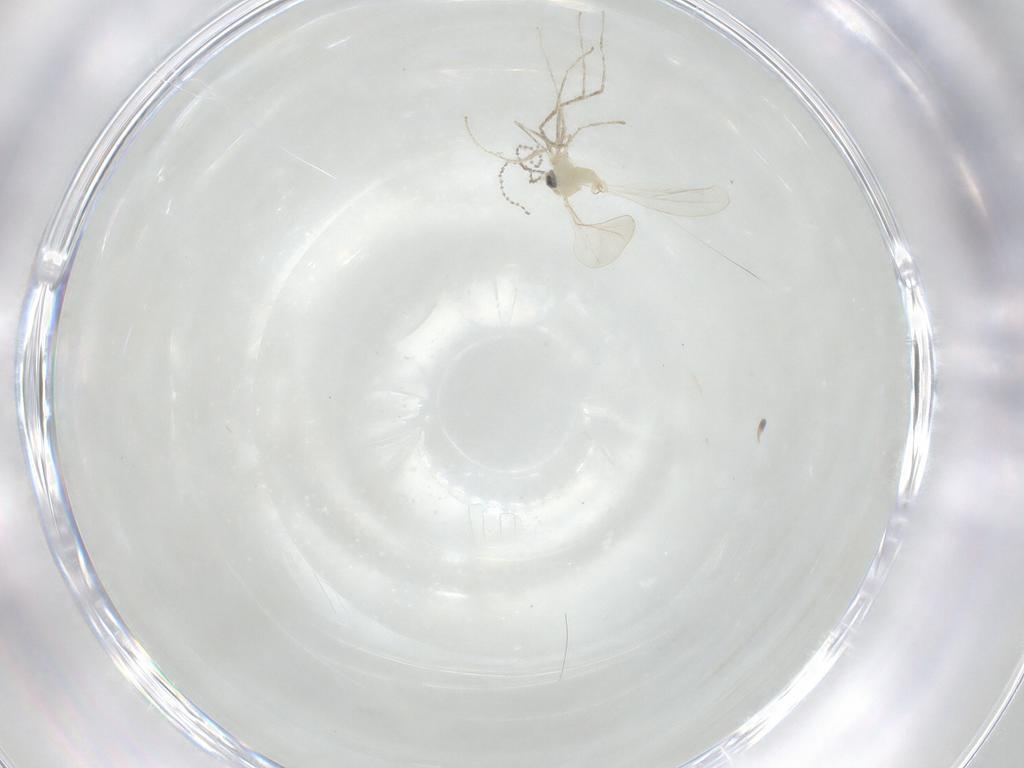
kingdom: Animalia
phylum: Arthropoda
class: Insecta
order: Diptera
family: Cecidomyiidae
